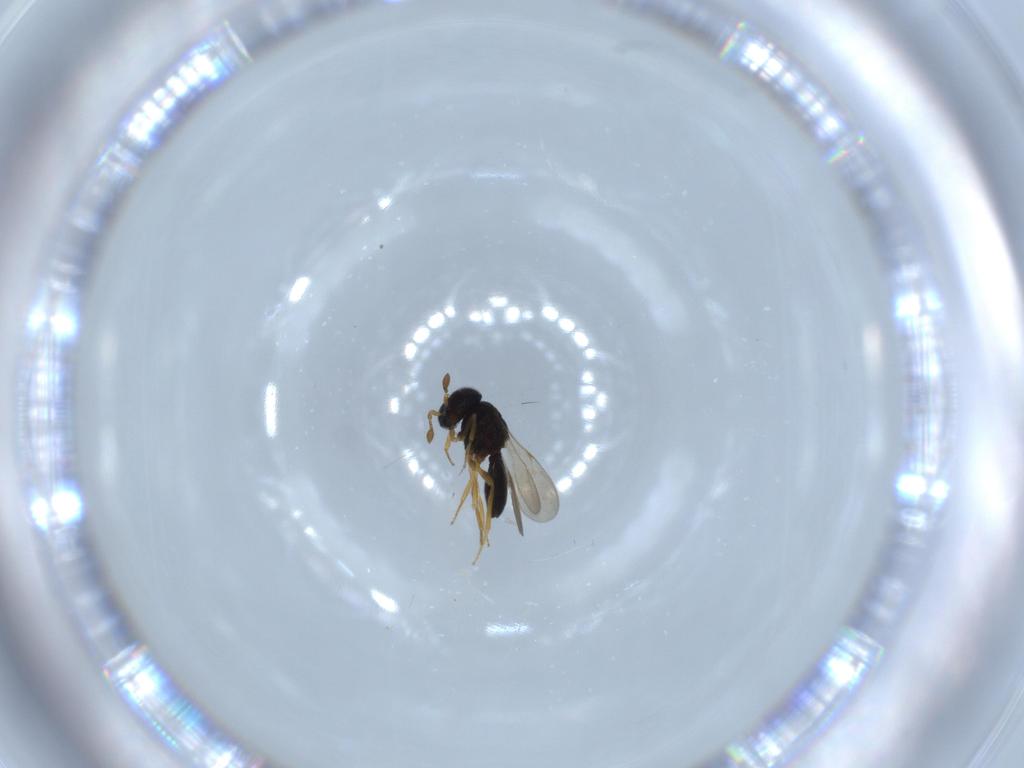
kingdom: Animalia
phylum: Arthropoda
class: Insecta
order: Hymenoptera
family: Scelionidae
